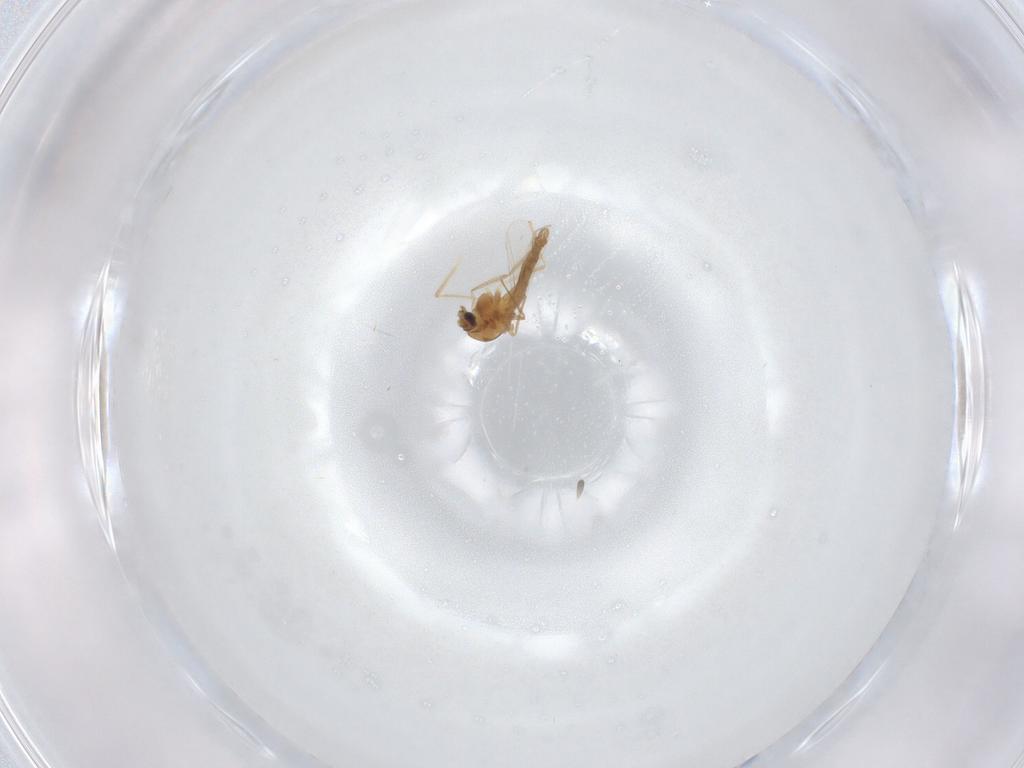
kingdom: Animalia
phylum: Arthropoda
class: Insecta
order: Diptera
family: Chironomidae
